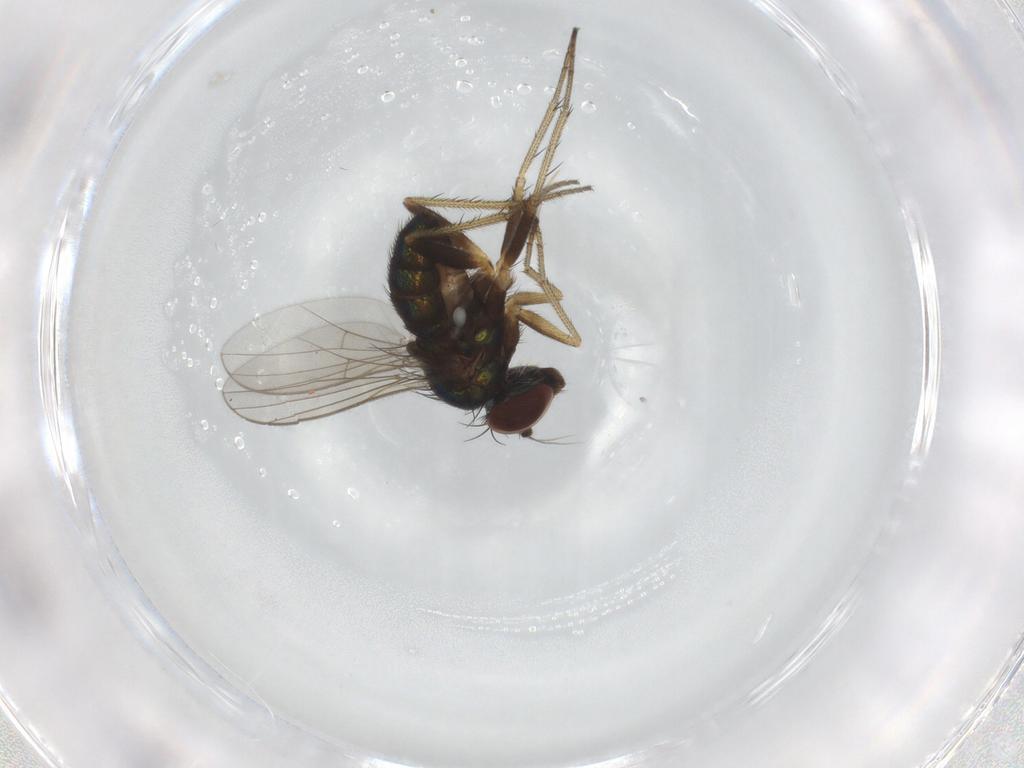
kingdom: Animalia
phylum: Arthropoda
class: Insecta
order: Diptera
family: Dolichopodidae
